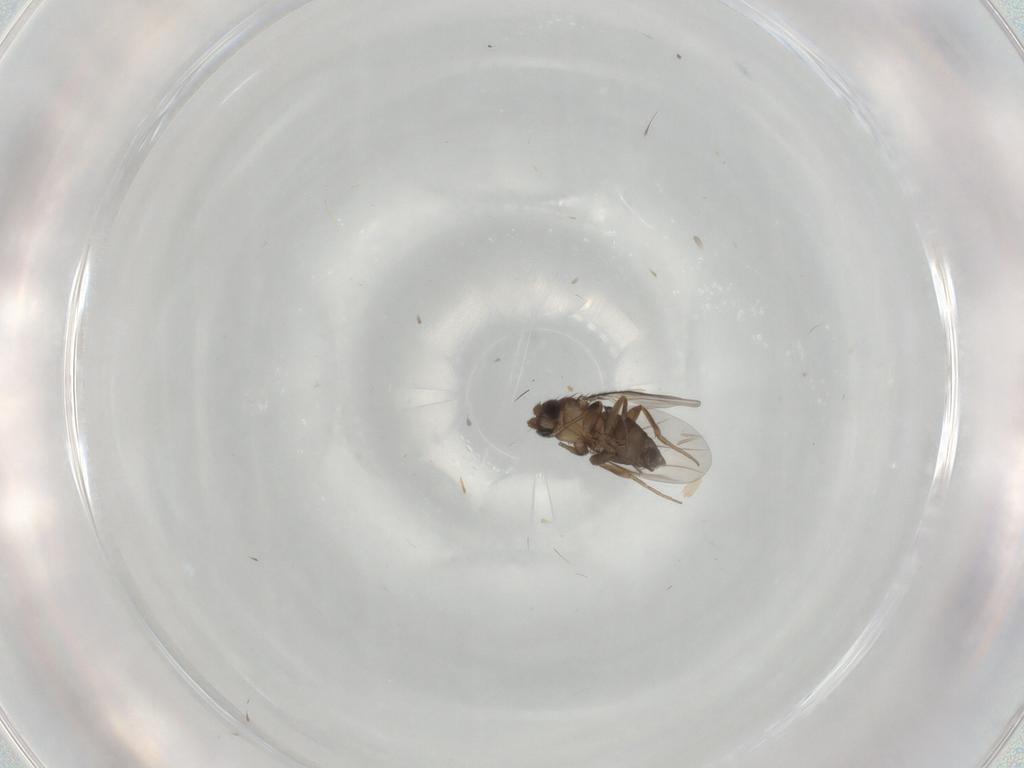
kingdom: Animalia
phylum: Arthropoda
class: Insecta
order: Diptera
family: Phoridae
